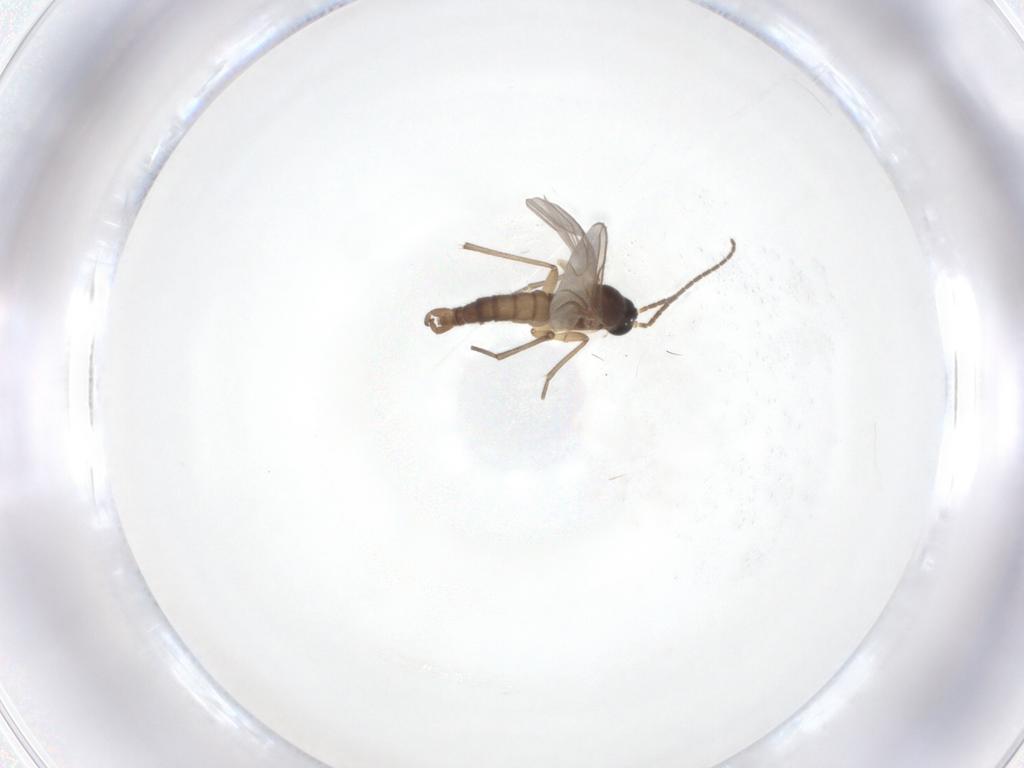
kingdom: Animalia
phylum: Arthropoda
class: Insecta
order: Diptera
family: Sciaridae
